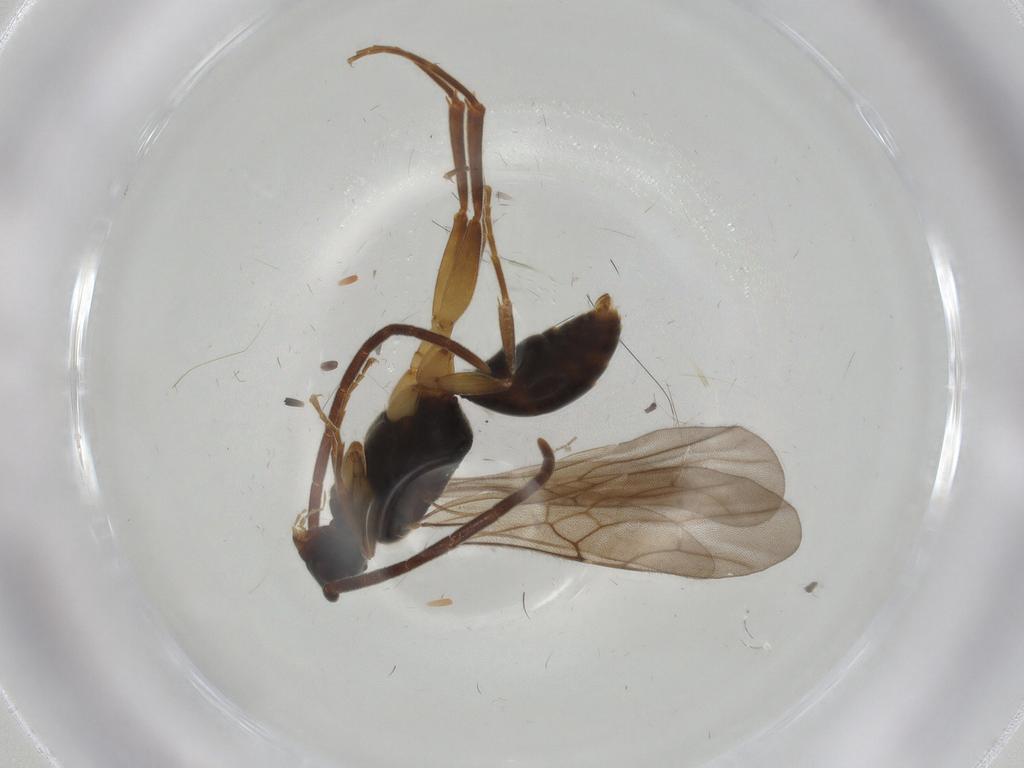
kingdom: Animalia
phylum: Arthropoda
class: Insecta
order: Hymenoptera
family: Embolemidae
